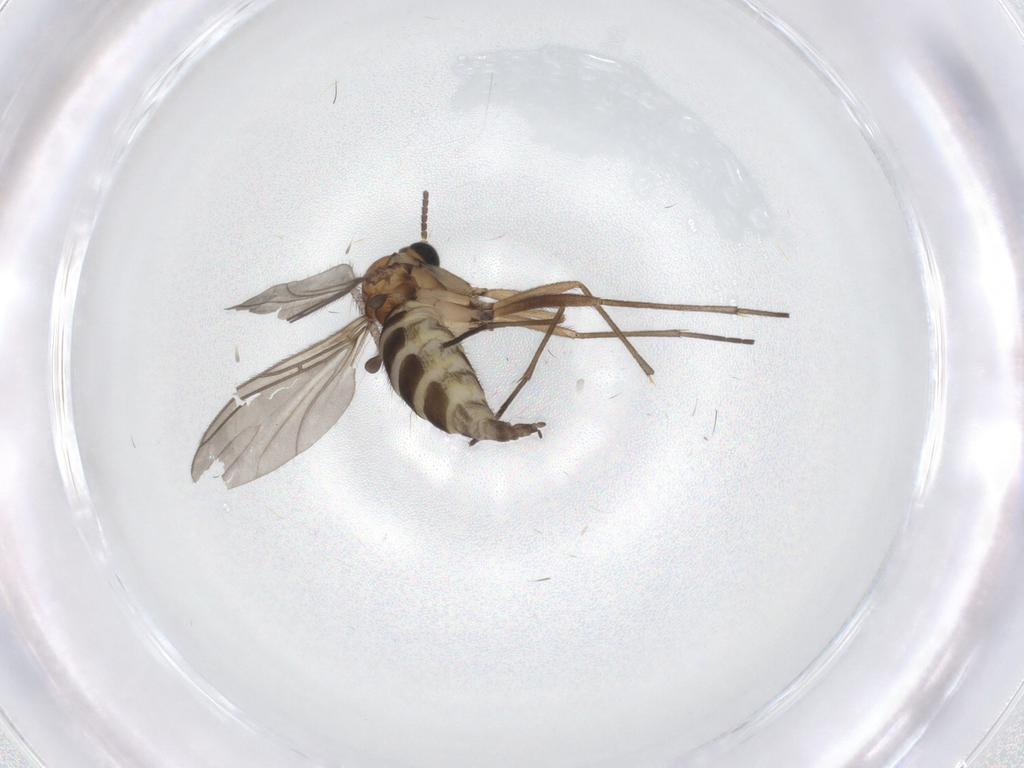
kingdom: Animalia
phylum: Arthropoda
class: Insecta
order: Diptera
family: Sciaridae
